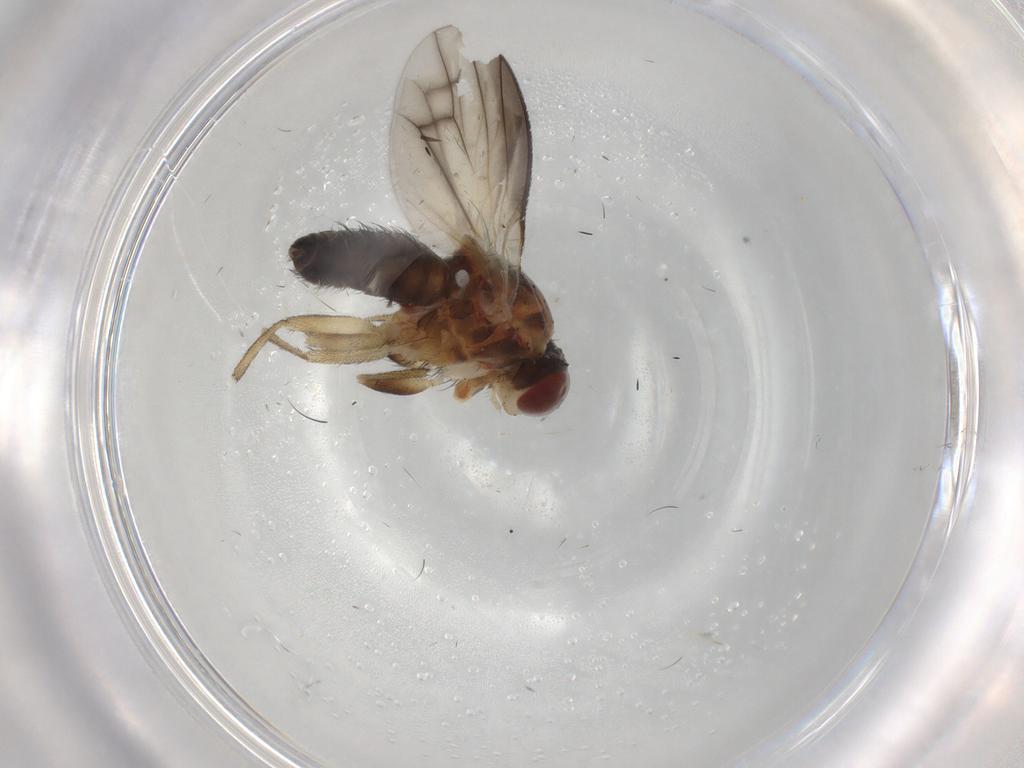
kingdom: Animalia
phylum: Arthropoda
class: Insecta
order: Diptera
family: Heleomyzidae
